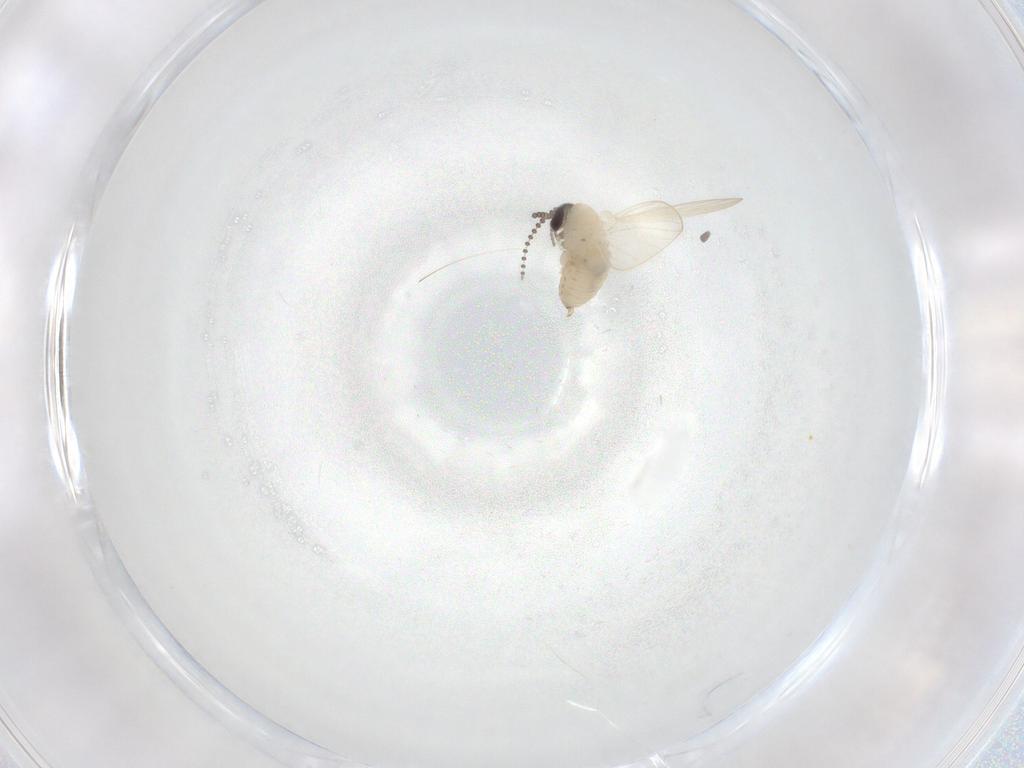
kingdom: Animalia
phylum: Arthropoda
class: Insecta
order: Diptera
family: Psychodidae
